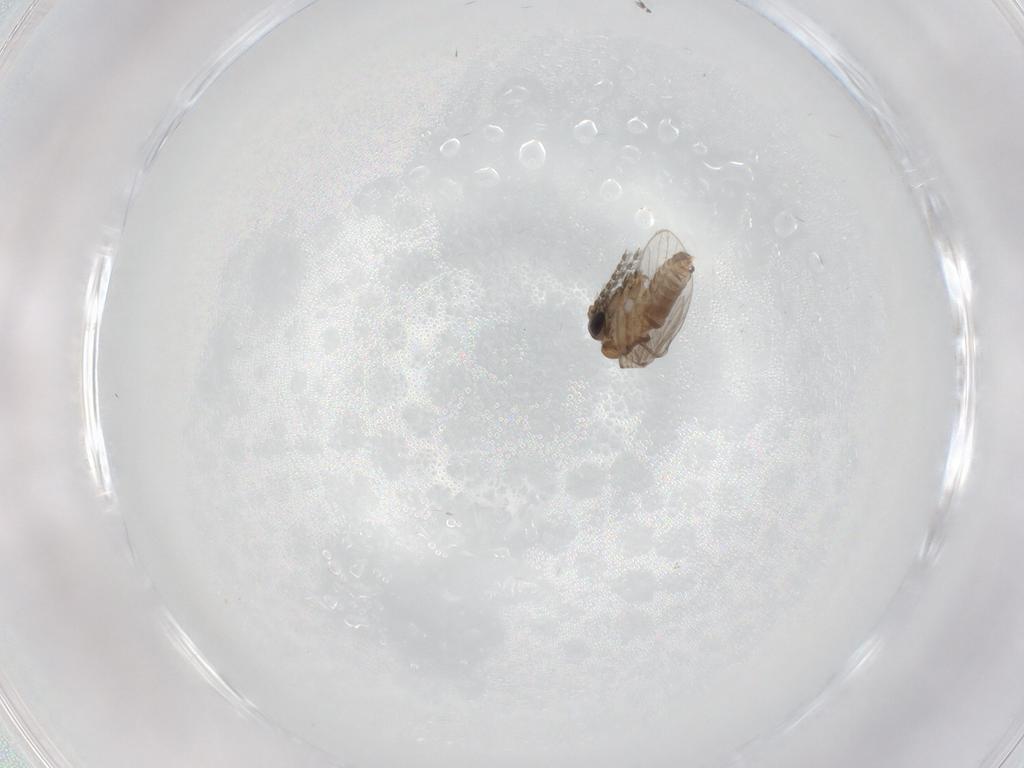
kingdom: Animalia
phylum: Arthropoda
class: Insecta
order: Diptera
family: Psychodidae
